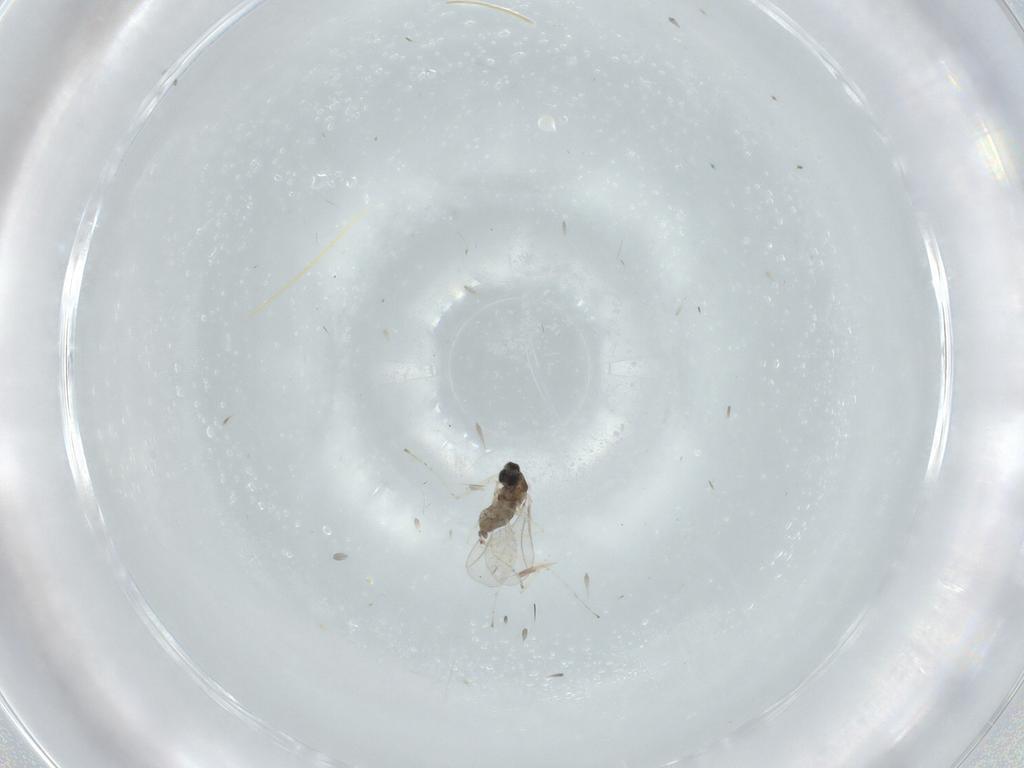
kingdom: Animalia
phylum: Arthropoda
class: Insecta
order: Diptera
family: Cecidomyiidae
